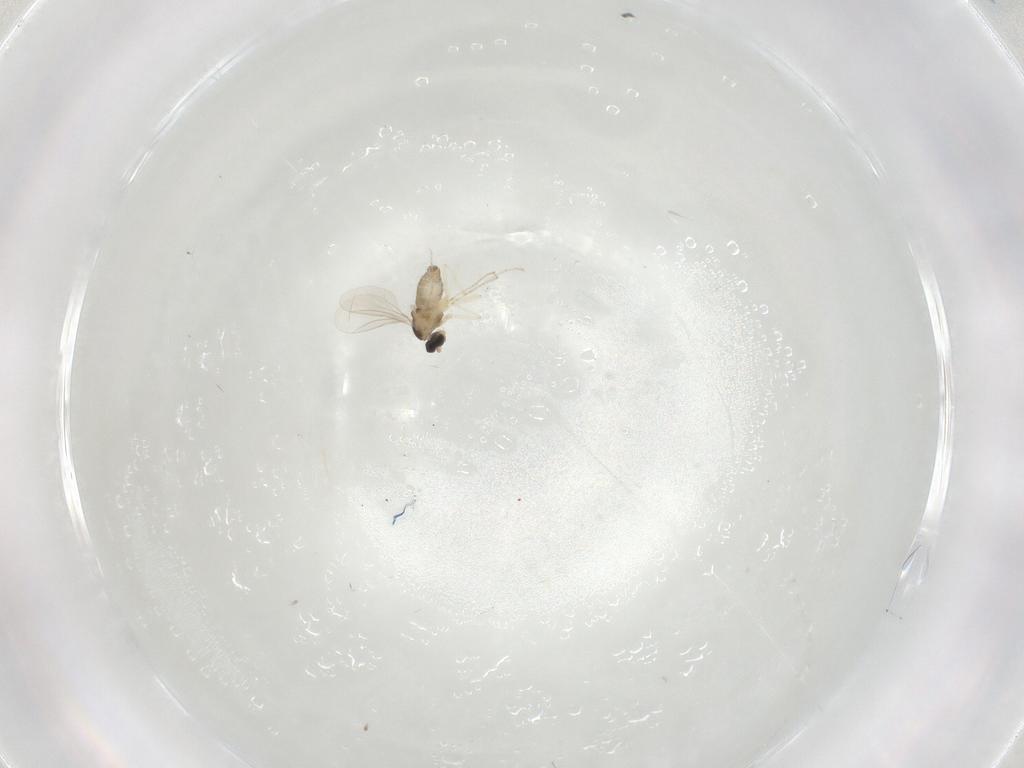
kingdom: Animalia
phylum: Arthropoda
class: Insecta
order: Diptera
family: Cecidomyiidae
